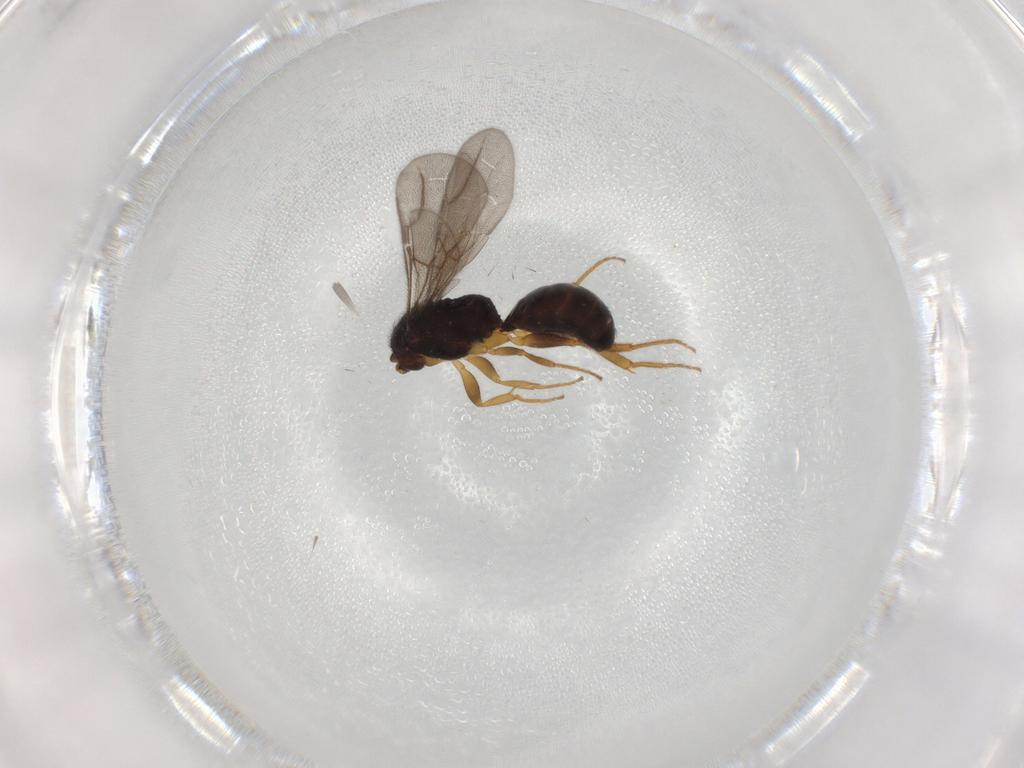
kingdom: Animalia
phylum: Arthropoda
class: Insecta
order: Hymenoptera
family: Bethylidae
